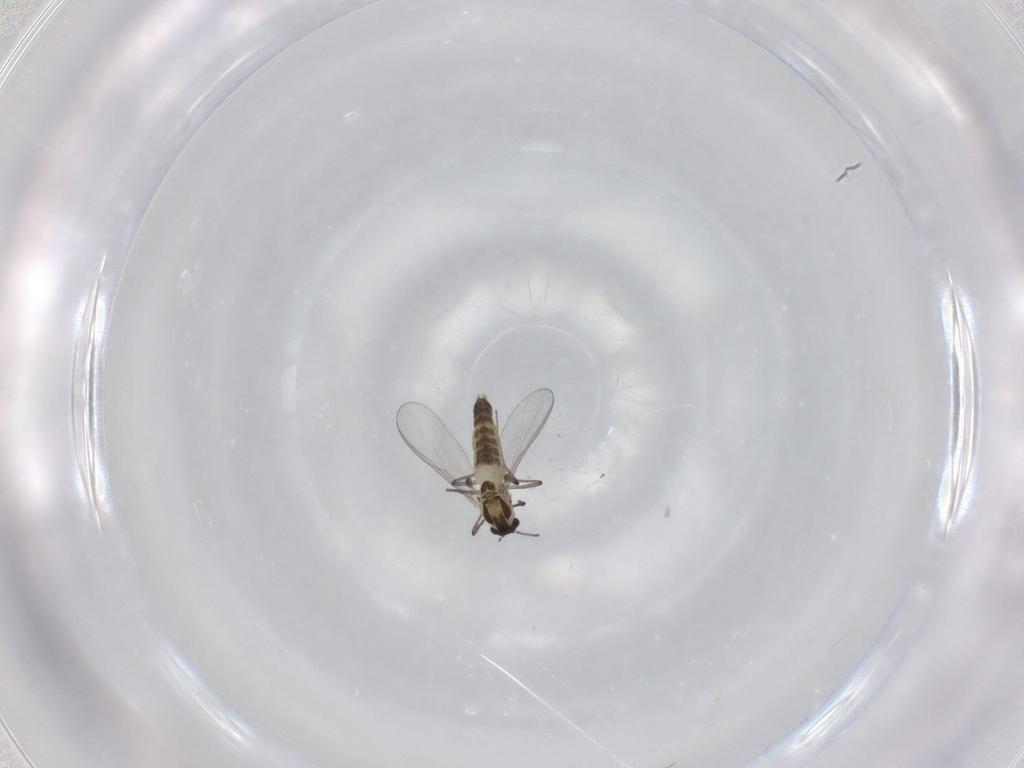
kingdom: Animalia
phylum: Arthropoda
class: Insecta
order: Diptera
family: Chironomidae
